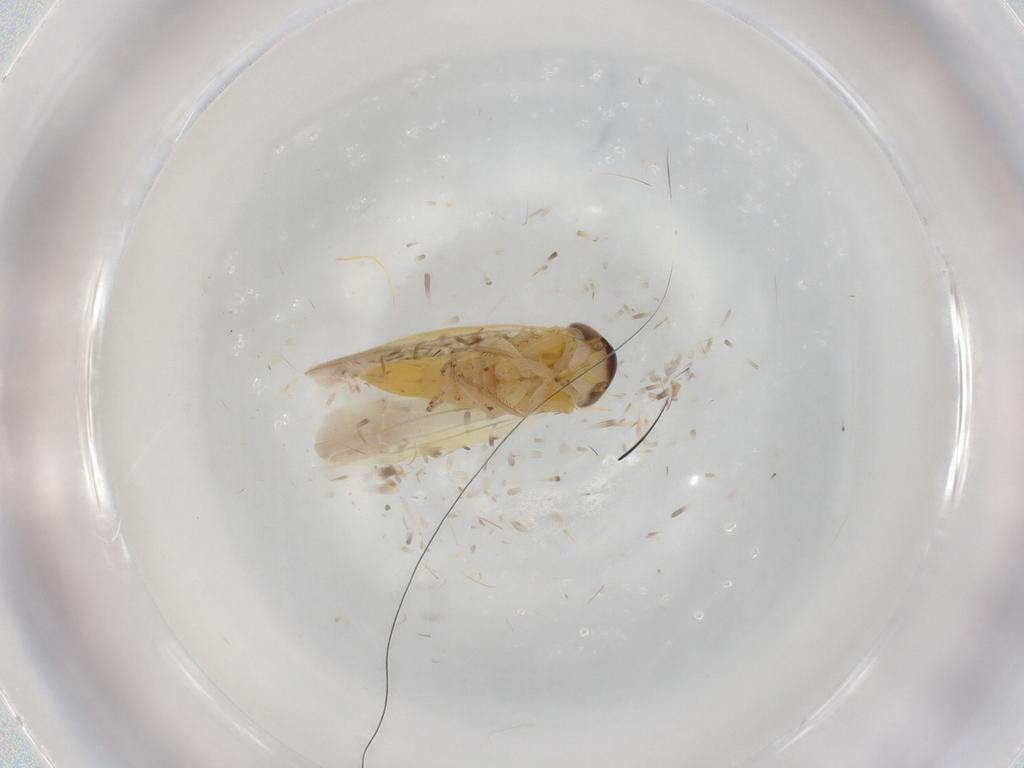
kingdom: Animalia
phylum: Arthropoda
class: Insecta
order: Hemiptera
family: Cicadellidae
